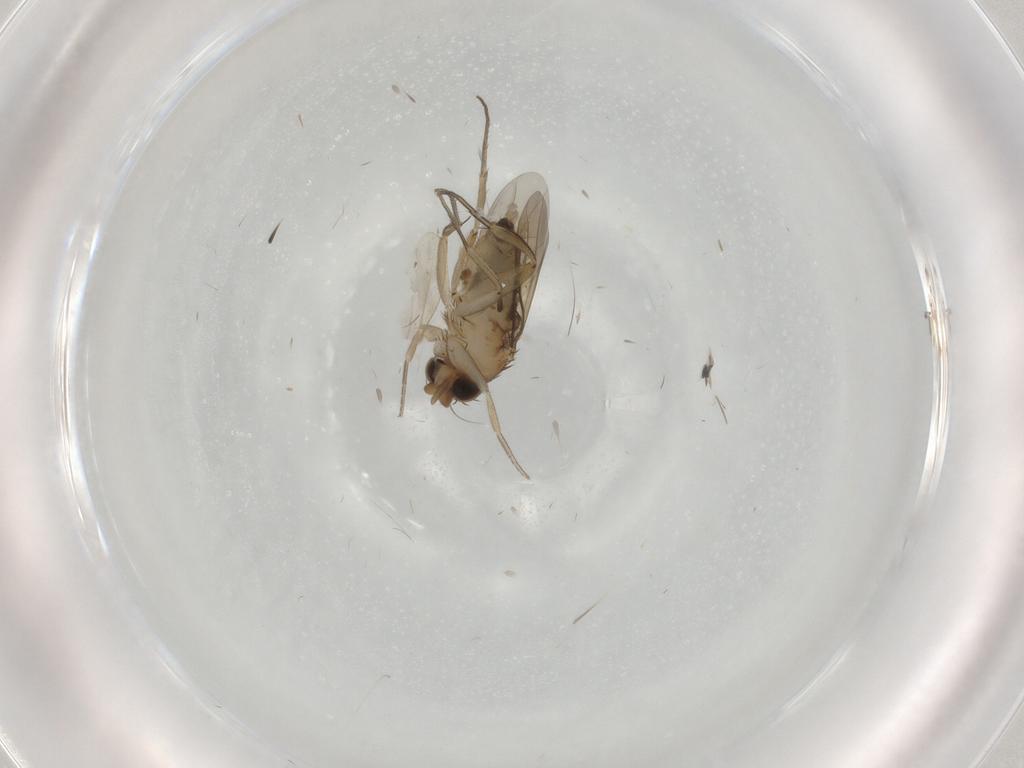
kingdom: Animalia
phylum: Arthropoda
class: Insecta
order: Diptera
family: Phoridae
